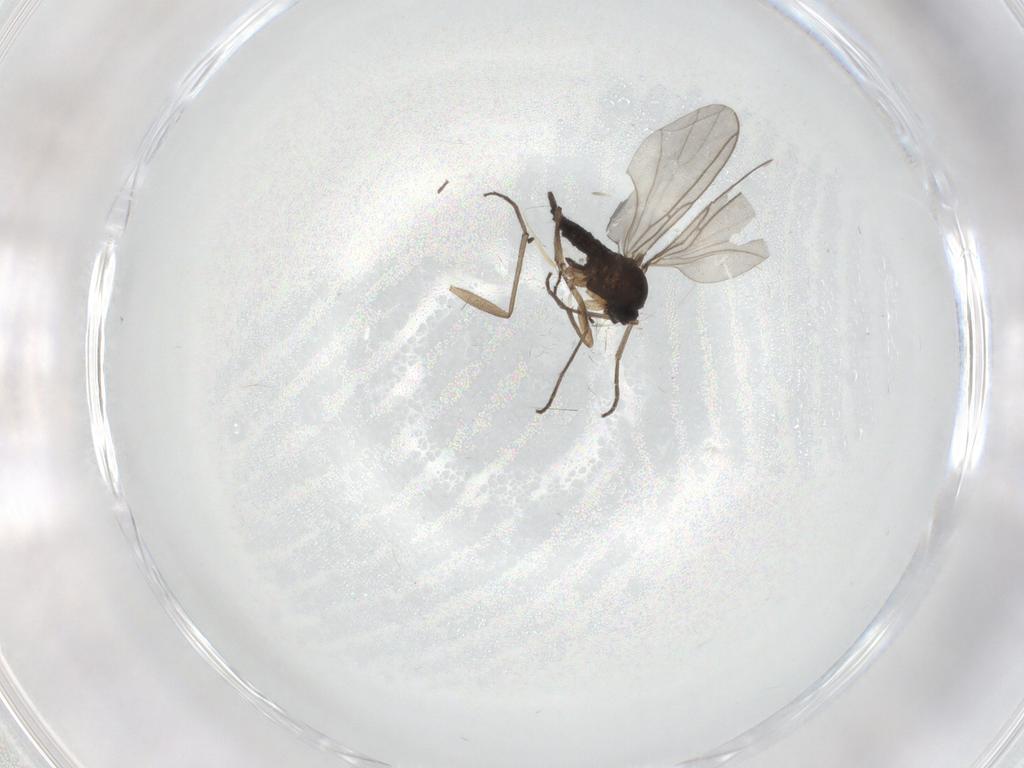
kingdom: Animalia
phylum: Arthropoda
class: Insecta
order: Diptera
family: Sciaridae
